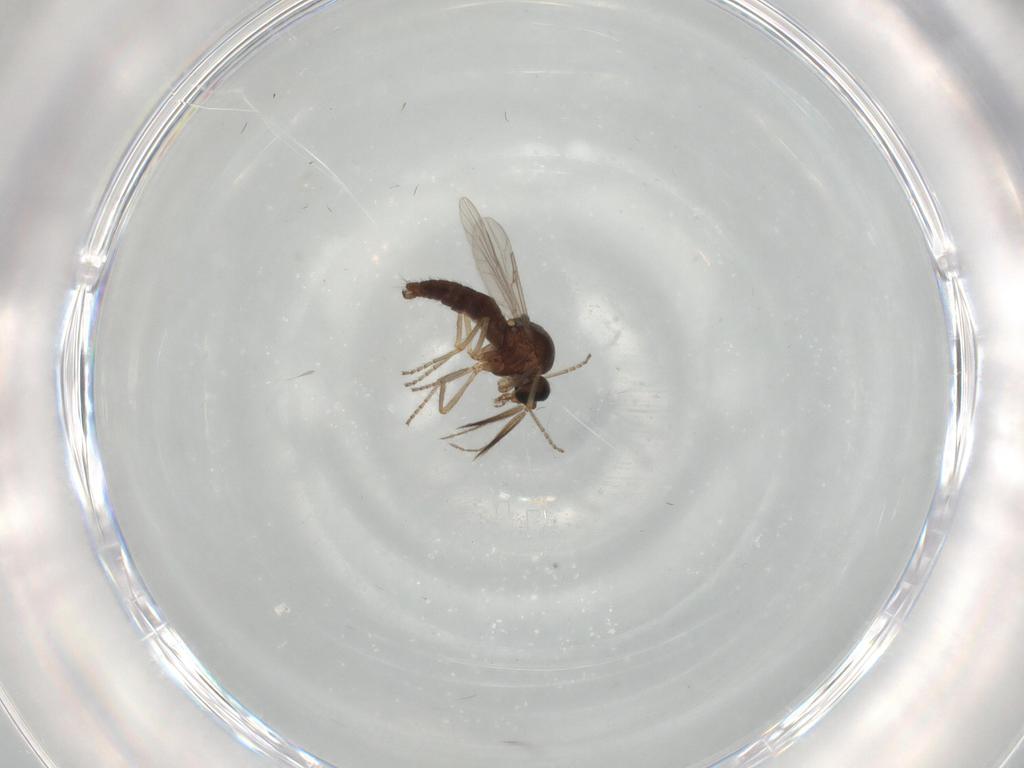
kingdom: Animalia
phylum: Arthropoda
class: Insecta
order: Diptera
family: Ceratopogonidae
